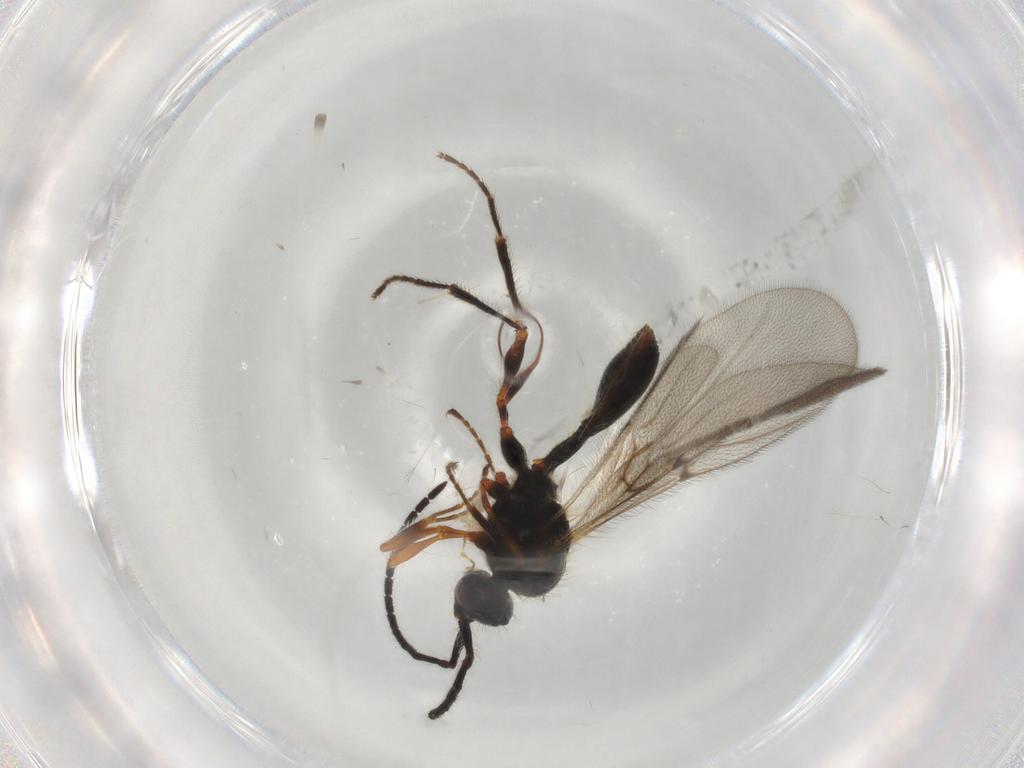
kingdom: Animalia
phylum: Arthropoda
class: Insecta
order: Hymenoptera
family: Diapriidae
